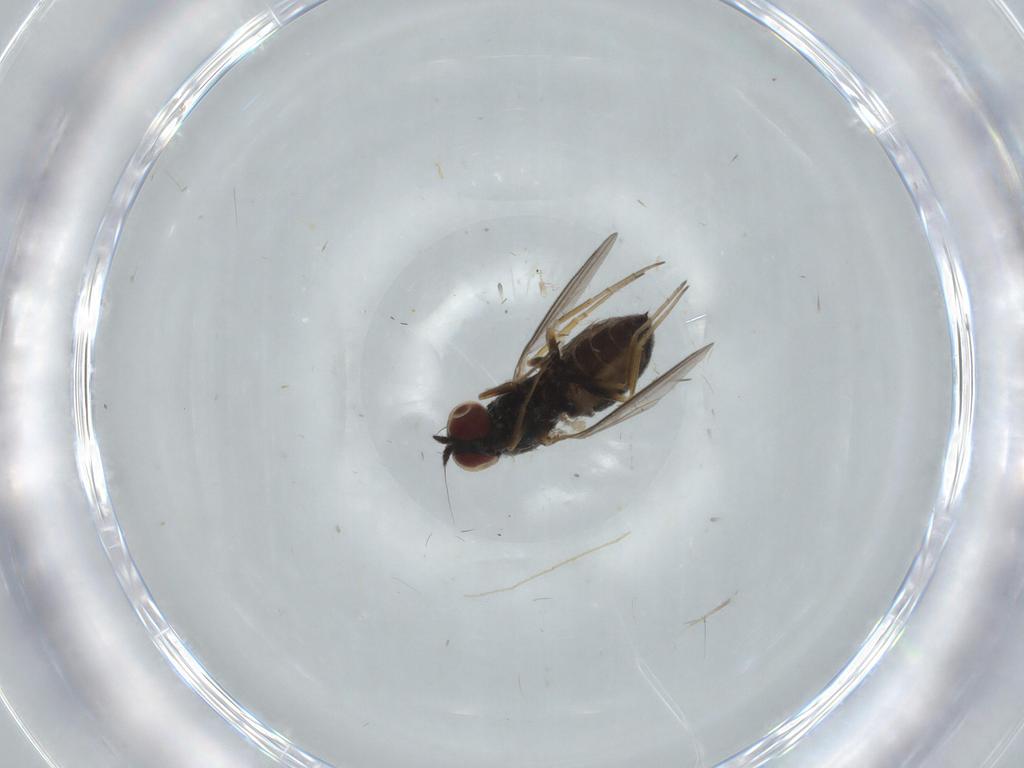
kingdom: Animalia
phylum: Arthropoda
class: Insecta
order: Diptera
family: Dolichopodidae
